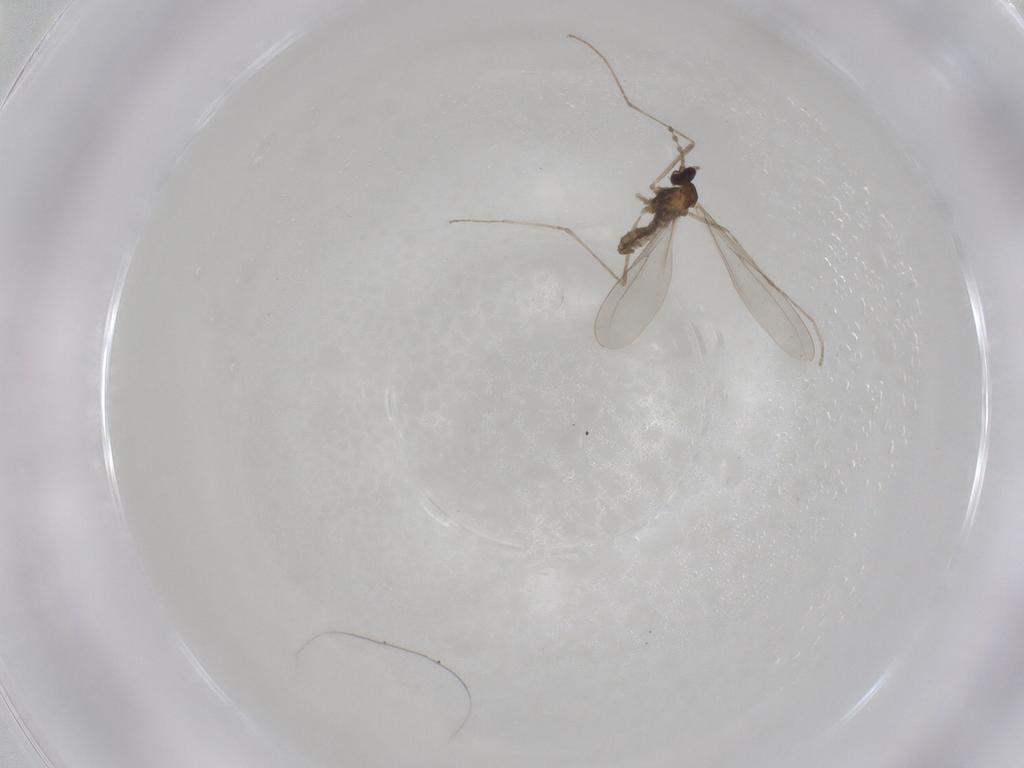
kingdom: Animalia
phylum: Arthropoda
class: Insecta
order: Diptera
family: Cecidomyiidae
